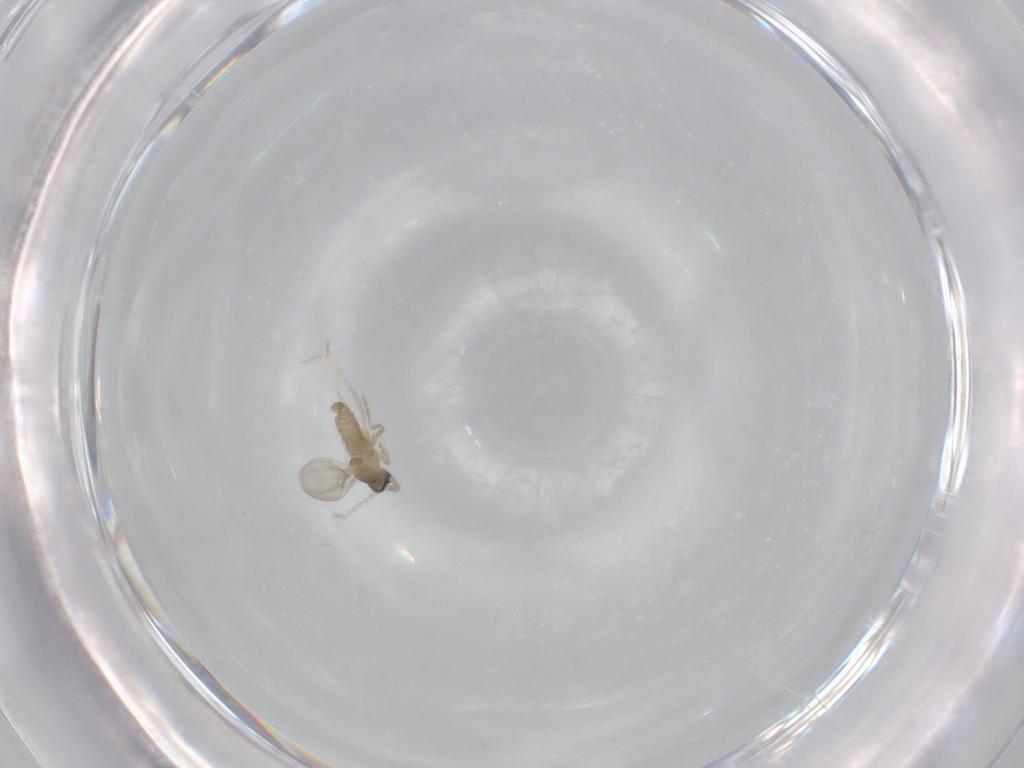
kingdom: Animalia
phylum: Arthropoda
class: Insecta
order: Diptera
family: Cecidomyiidae
